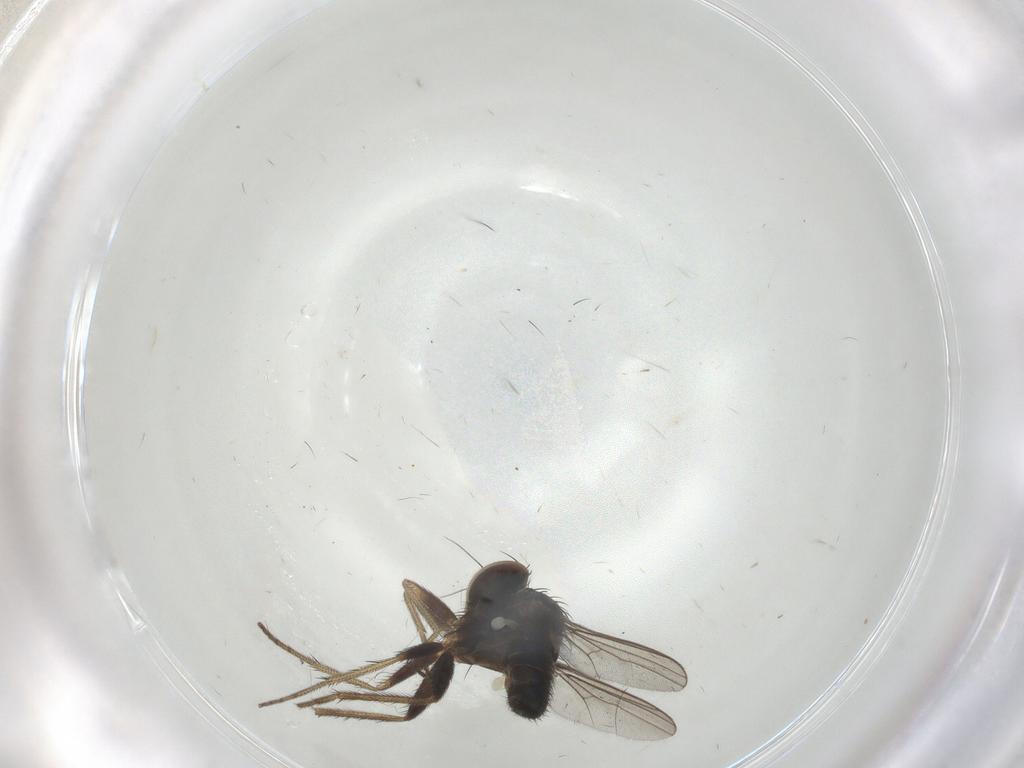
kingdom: Animalia
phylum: Arthropoda
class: Insecta
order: Diptera
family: Dolichopodidae
